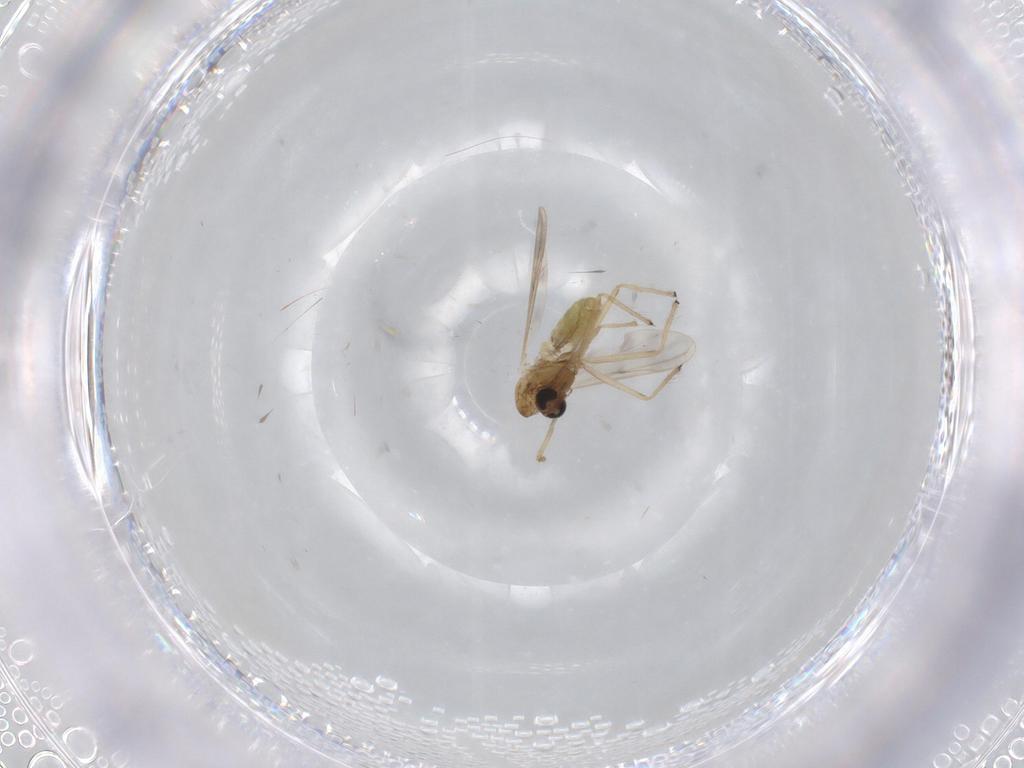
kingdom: Animalia
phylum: Arthropoda
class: Insecta
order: Diptera
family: Chironomidae
